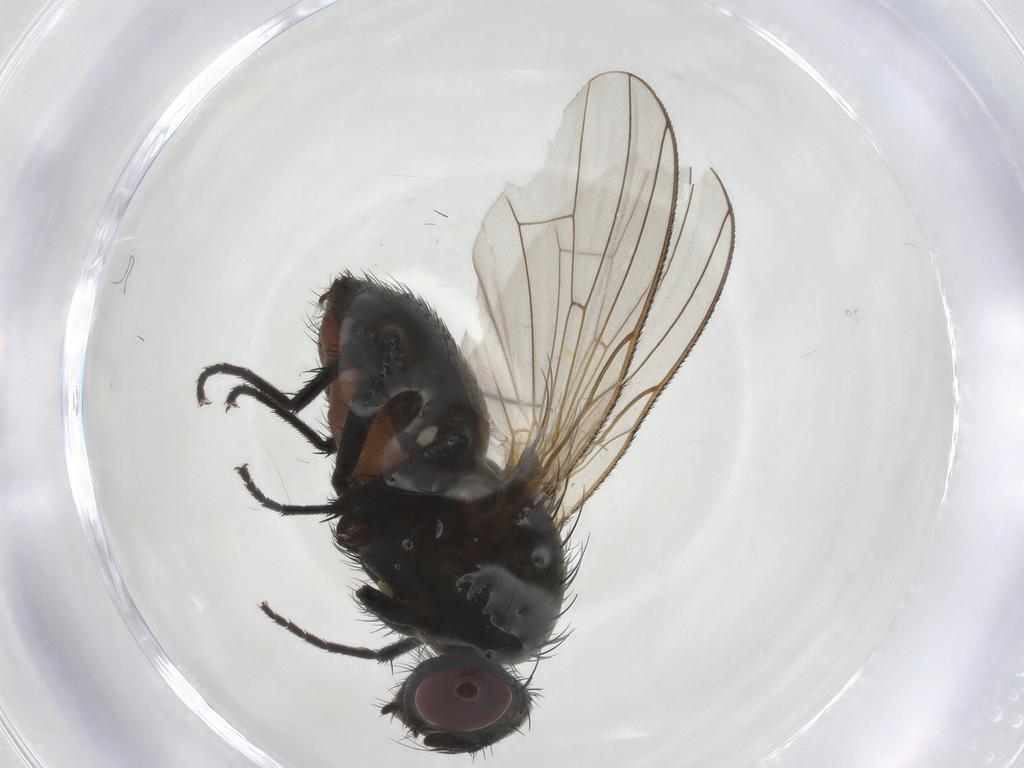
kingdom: Animalia
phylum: Arthropoda
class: Insecta
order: Diptera
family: Anthomyiidae
